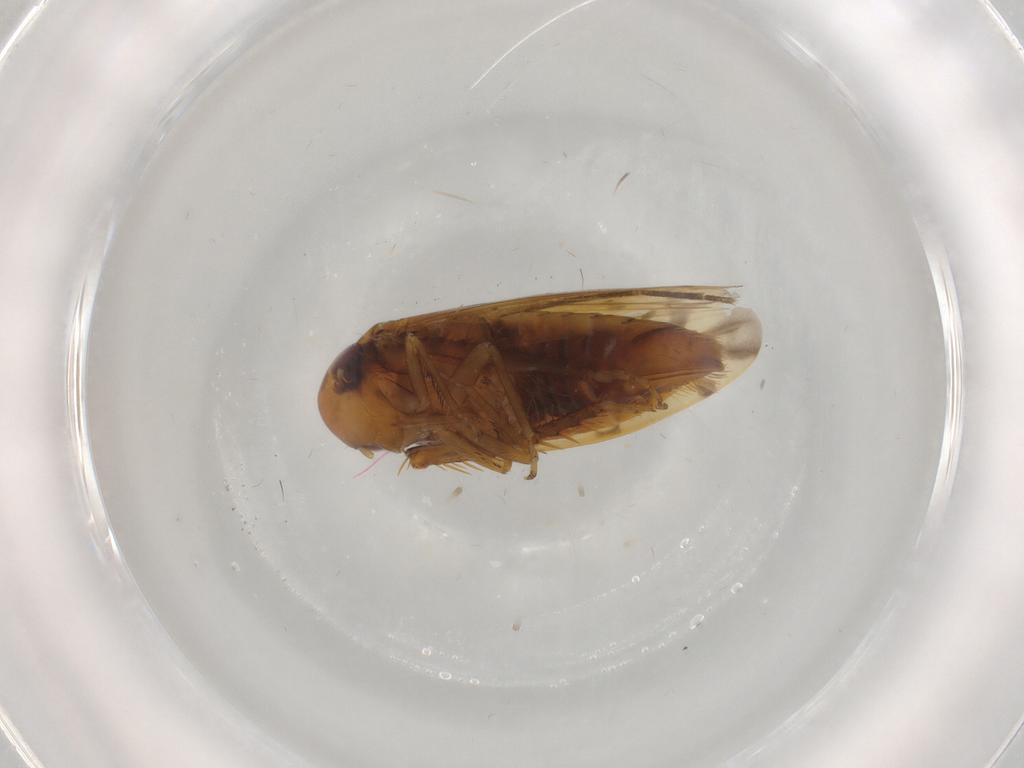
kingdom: Animalia
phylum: Arthropoda
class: Insecta
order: Hemiptera
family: Cicadellidae
